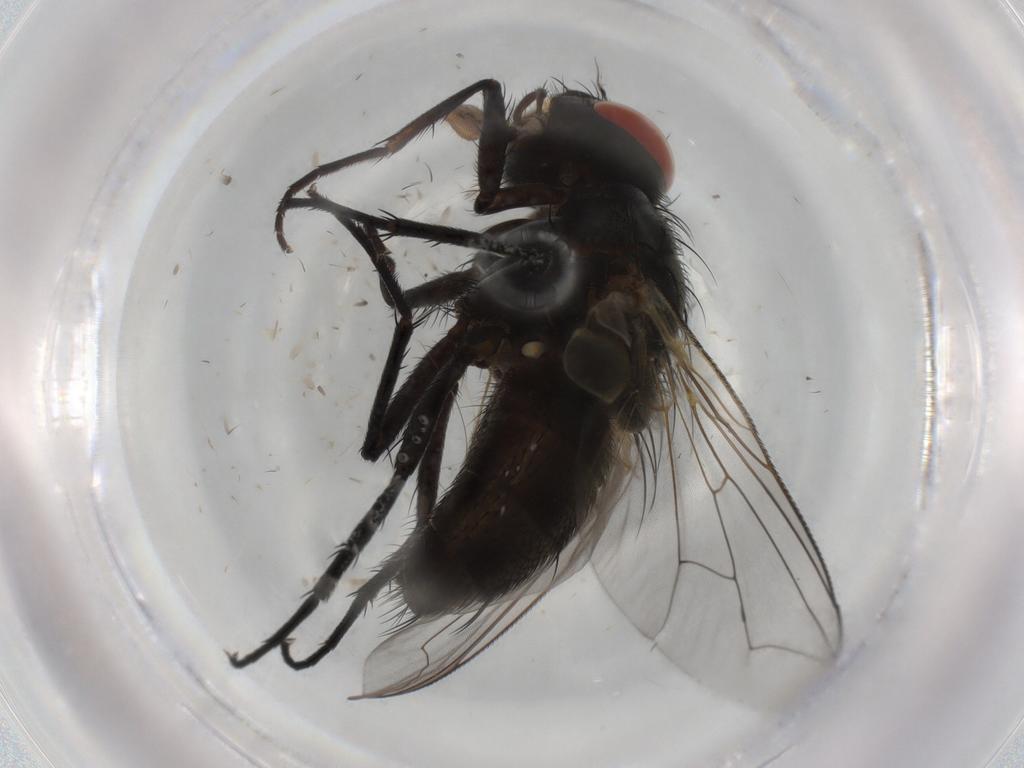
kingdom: Animalia
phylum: Arthropoda
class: Insecta
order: Diptera
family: Sarcophagidae
